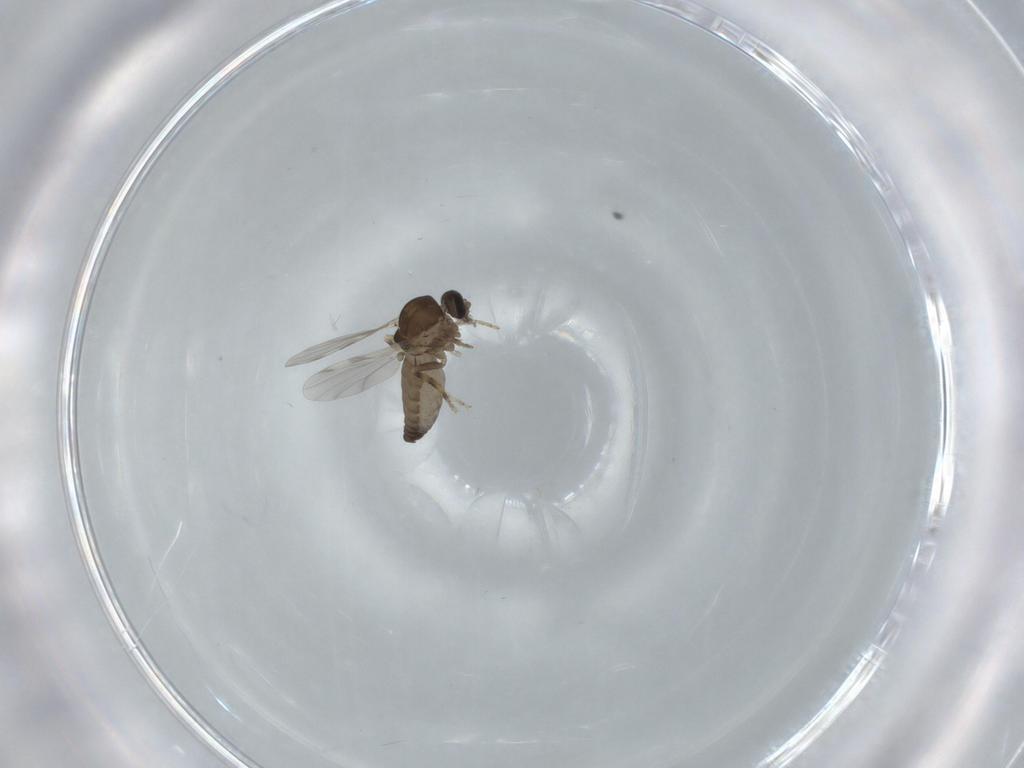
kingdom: Animalia
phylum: Arthropoda
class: Insecta
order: Diptera
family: Ceratopogonidae
